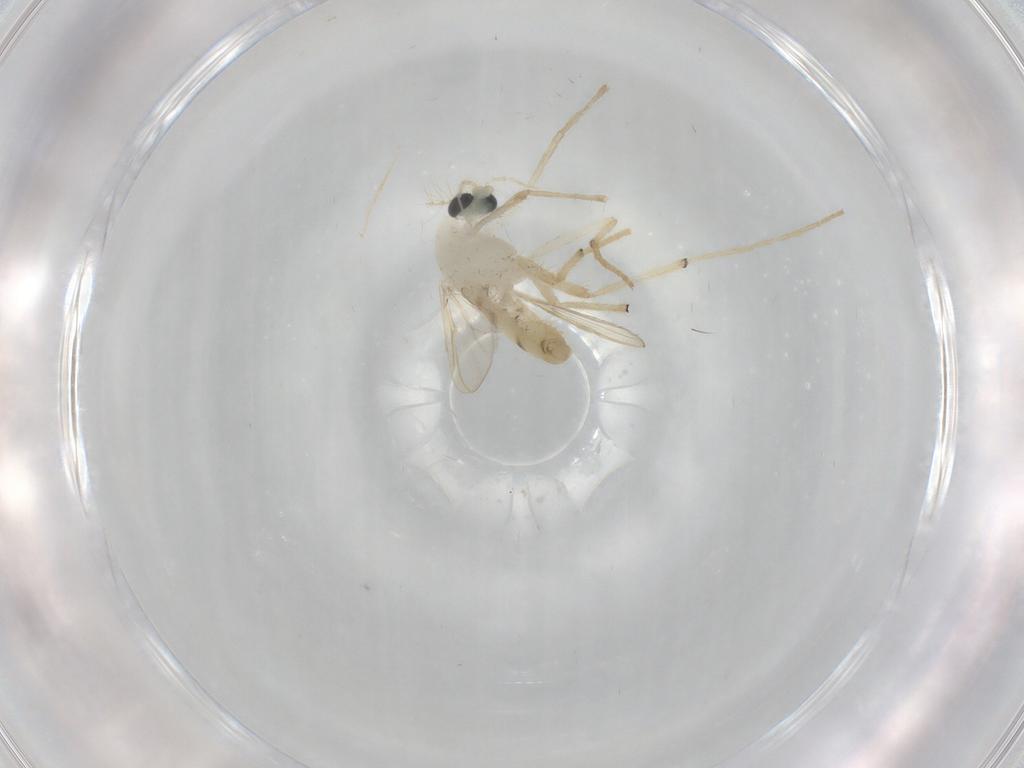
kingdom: Animalia
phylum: Arthropoda
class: Insecta
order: Diptera
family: Chironomidae
